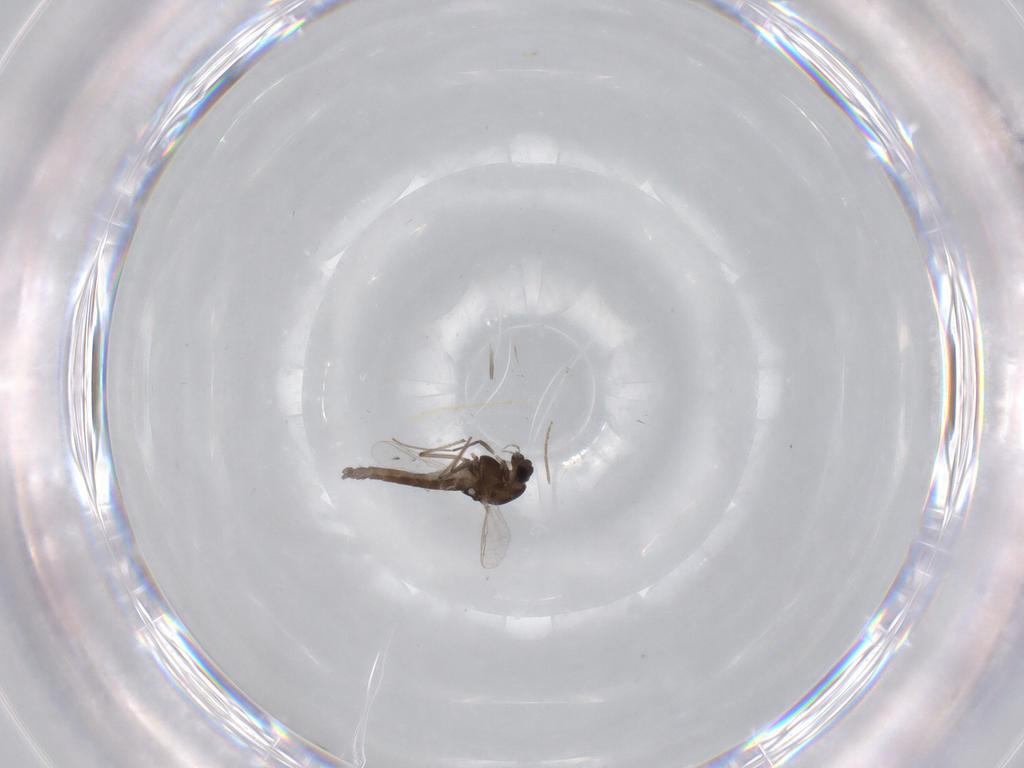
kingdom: Animalia
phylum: Arthropoda
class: Insecta
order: Diptera
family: Chironomidae
